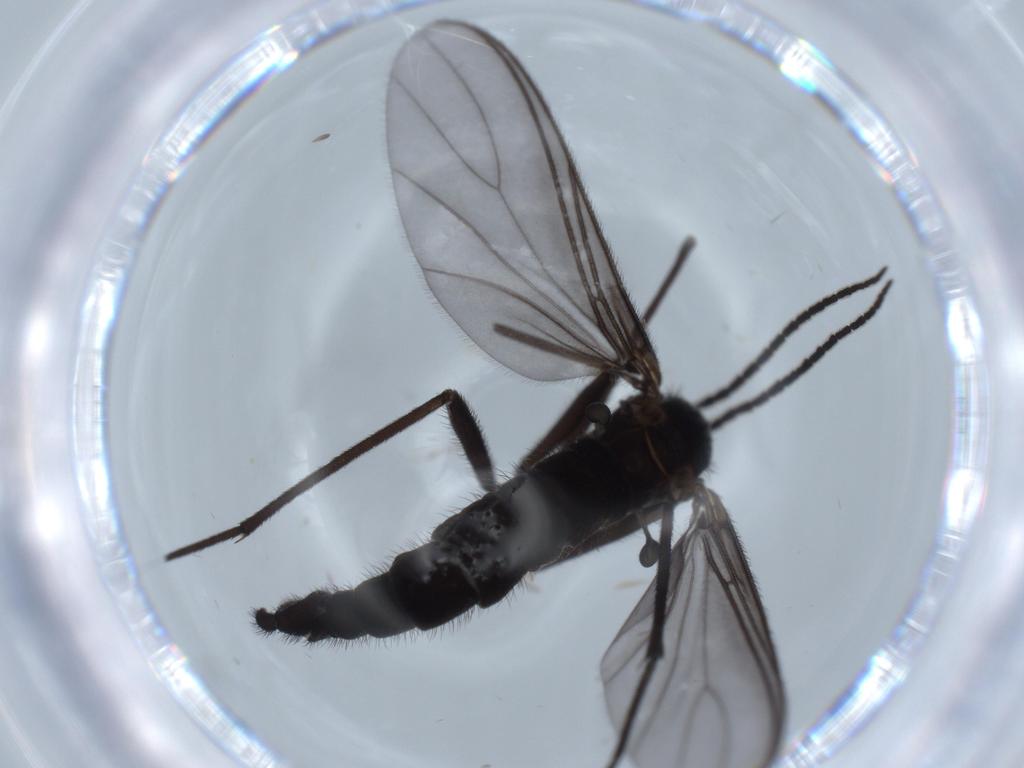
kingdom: Animalia
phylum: Arthropoda
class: Insecta
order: Diptera
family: Sciaridae
